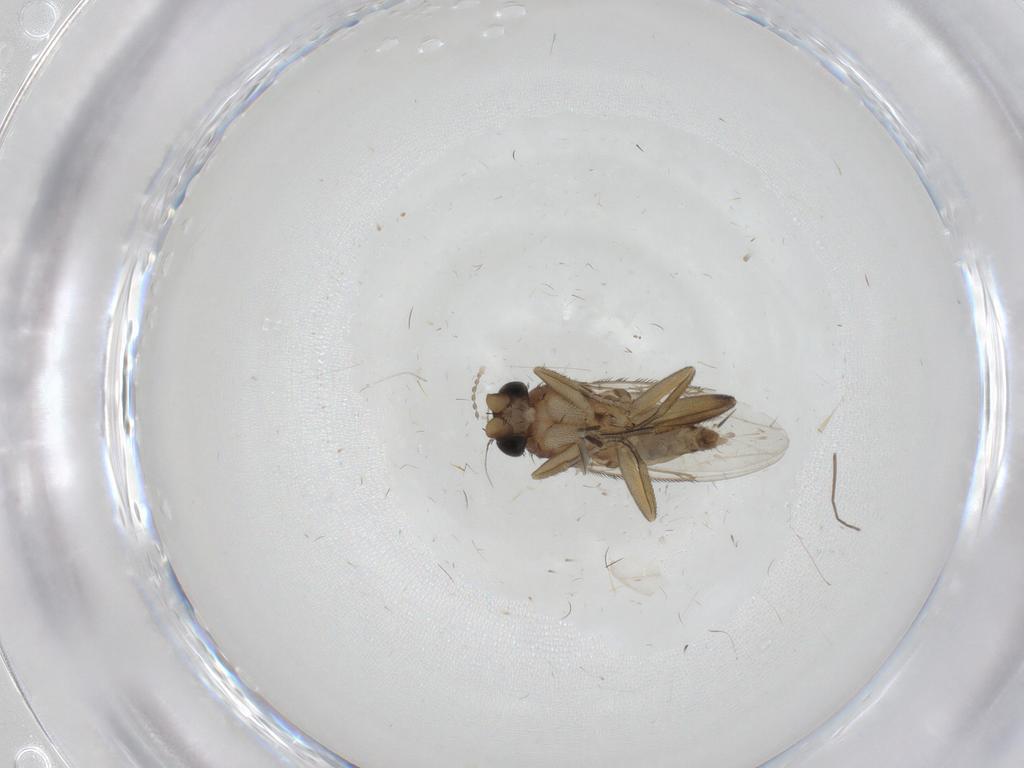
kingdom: Animalia
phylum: Arthropoda
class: Insecta
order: Diptera
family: Phoridae
